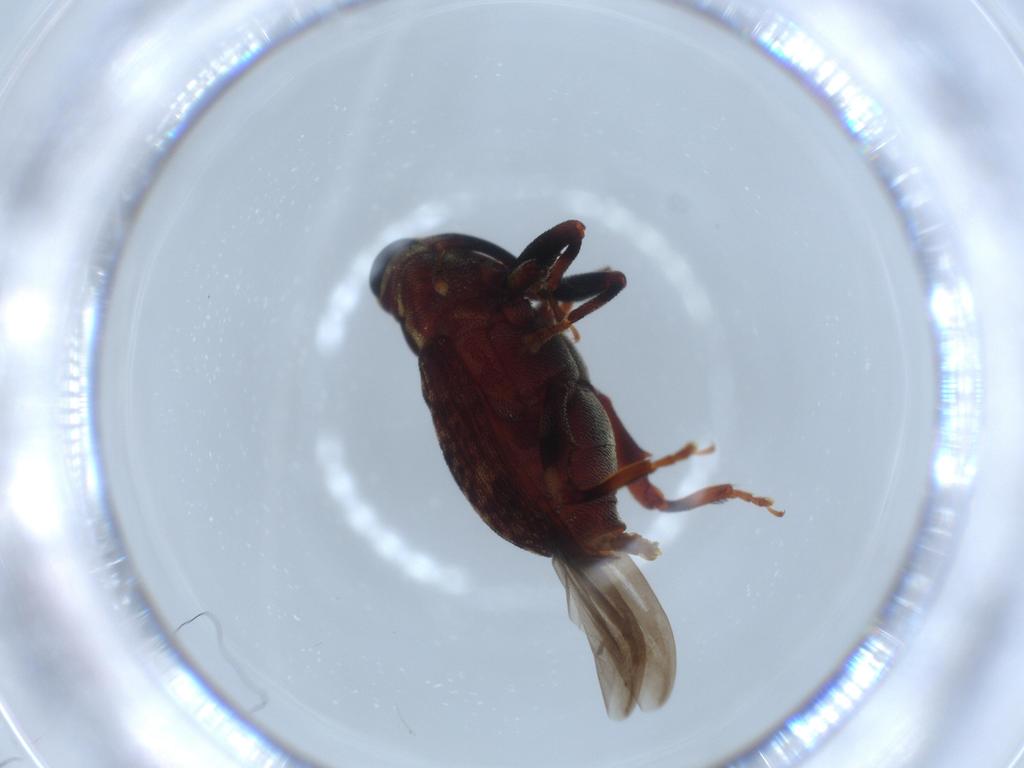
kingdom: Animalia
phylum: Arthropoda
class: Insecta
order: Coleoptera
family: Curculionidae
